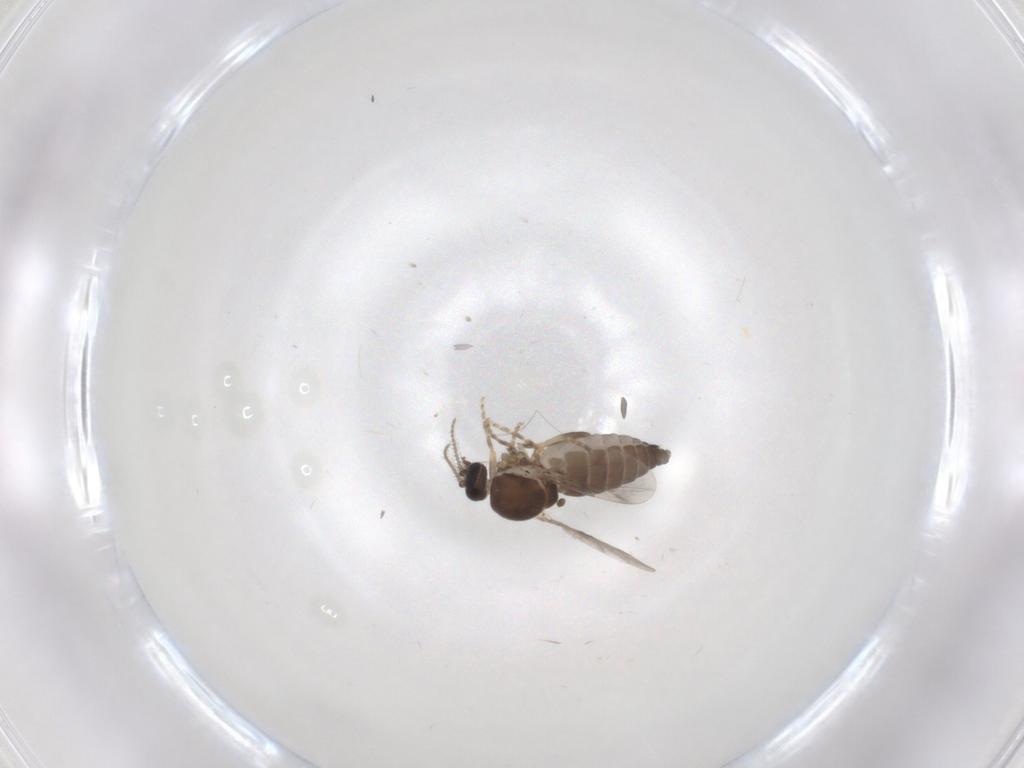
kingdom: Animalia
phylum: Arthropoda
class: Insecta
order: Diptera
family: Ceratopogonidae
